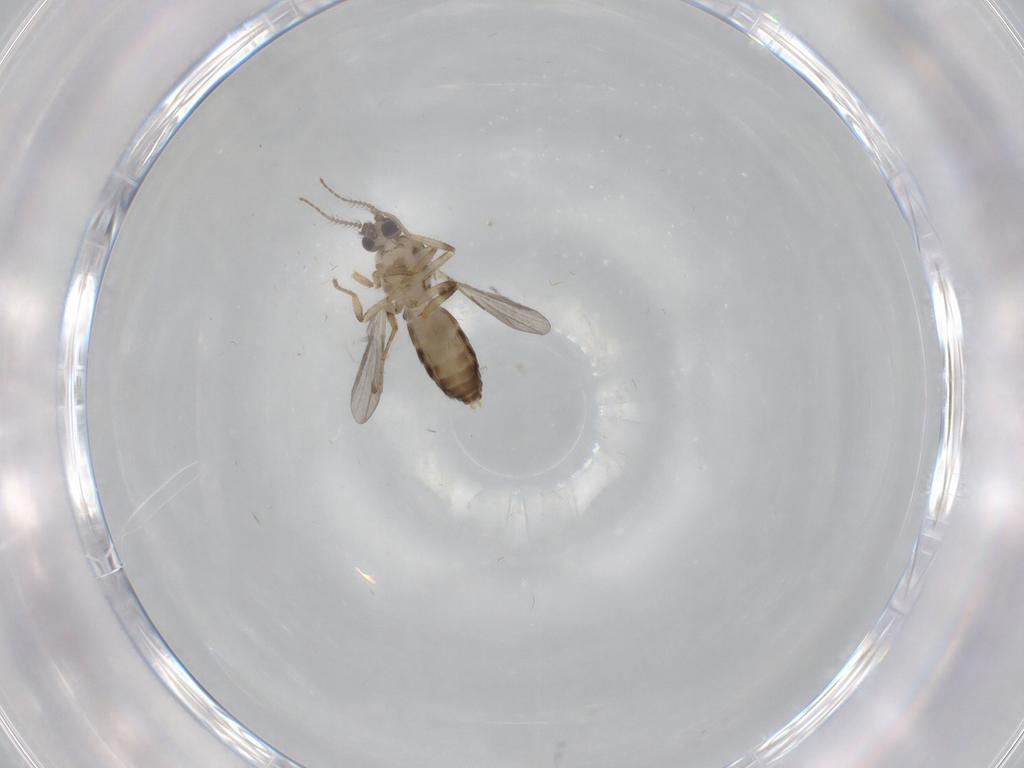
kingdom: Animalia
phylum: Arthropoda
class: Insecta
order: Diptera
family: Ceratopogonidae
